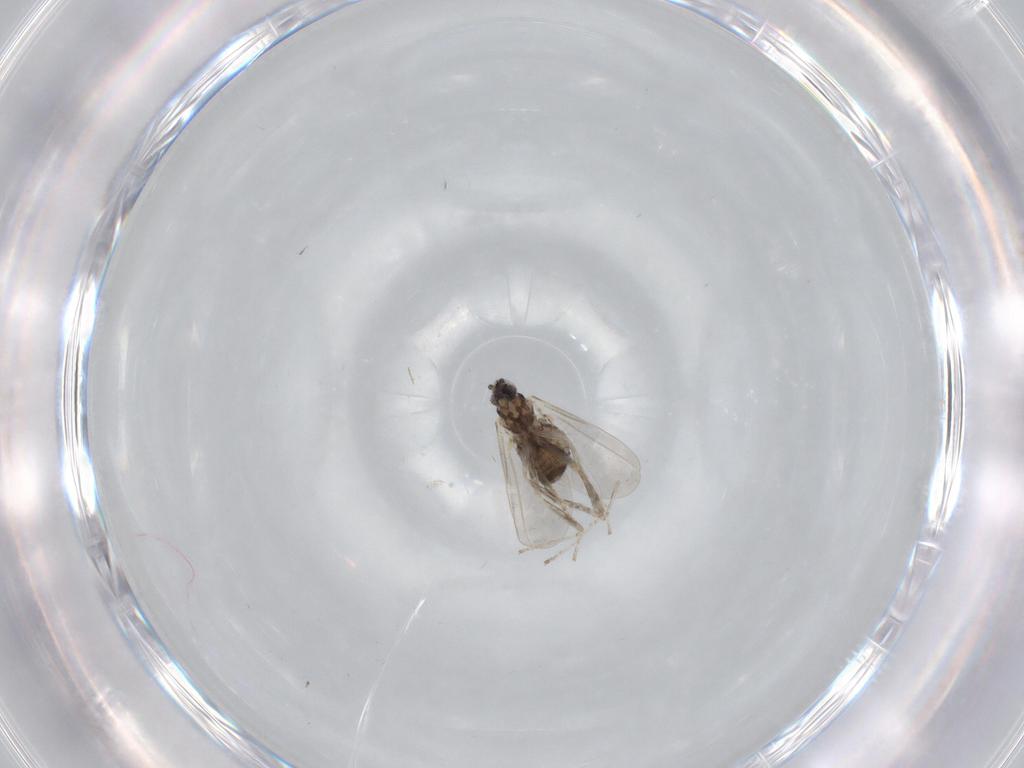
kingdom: Animalia
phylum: Arthropoda
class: Insecta
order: Diptera
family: Cecidomyiidae
